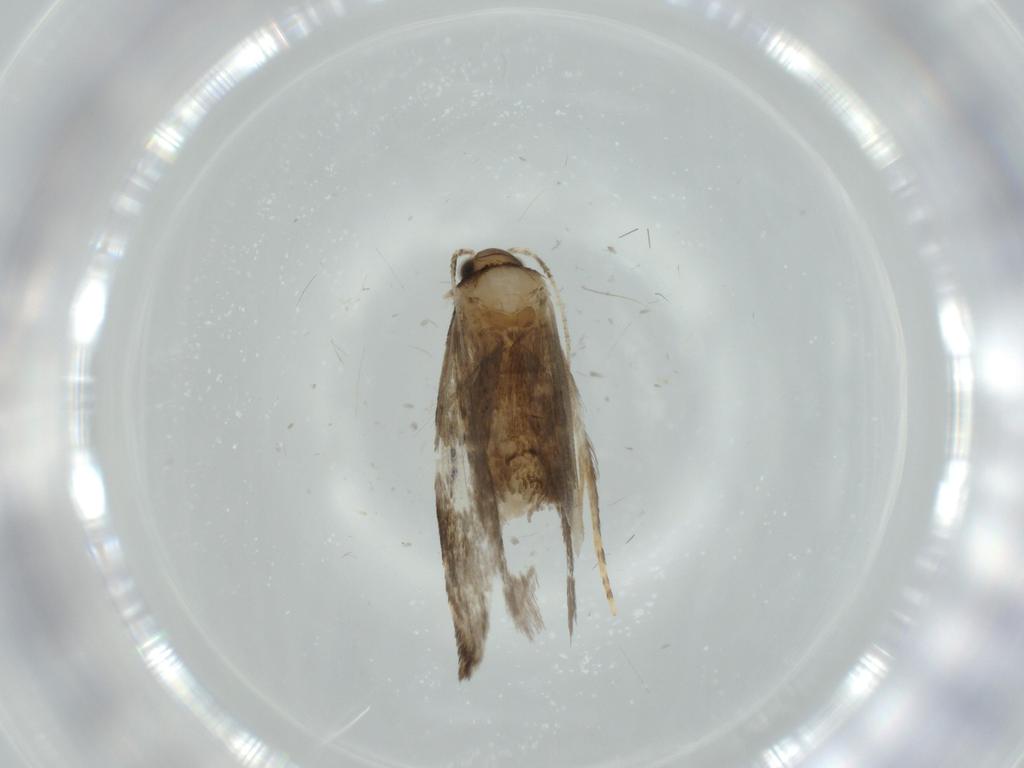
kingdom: Animalia
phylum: Arthropoda
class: Insecta
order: Lepidoptera
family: Tineidae
